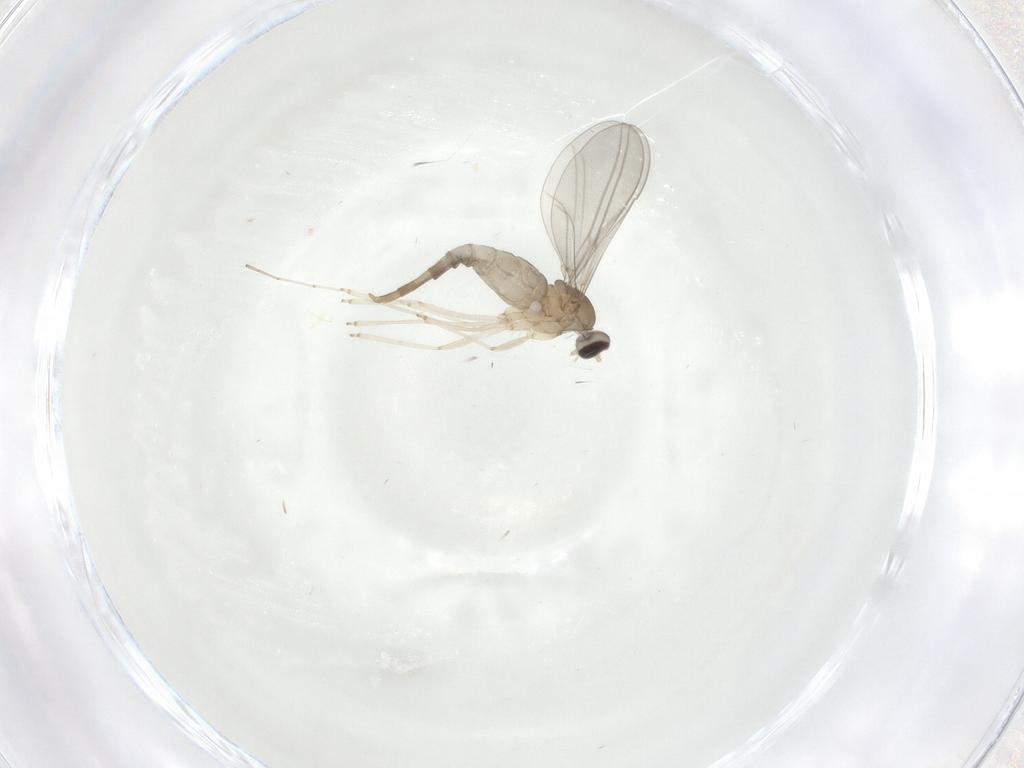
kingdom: Animalia
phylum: Arthropoda
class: Insecta
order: Diptera
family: Cecidomyiidae
